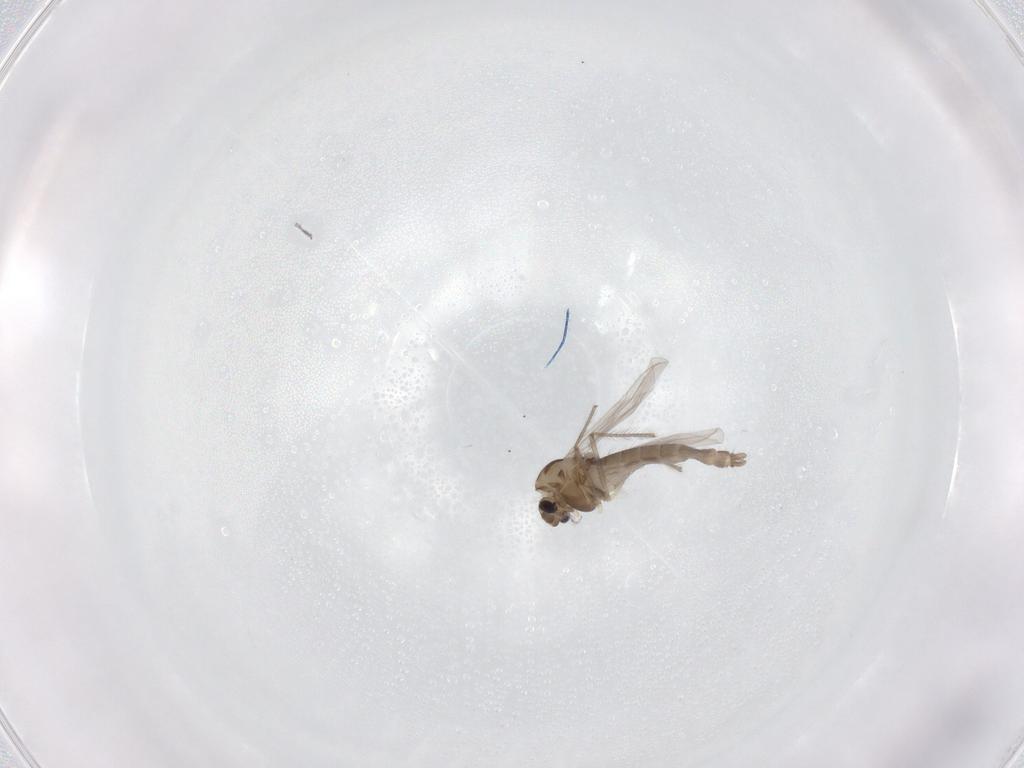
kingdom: Animalia
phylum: Arthropoda
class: Insecta
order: Diptera
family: Chironomidae
